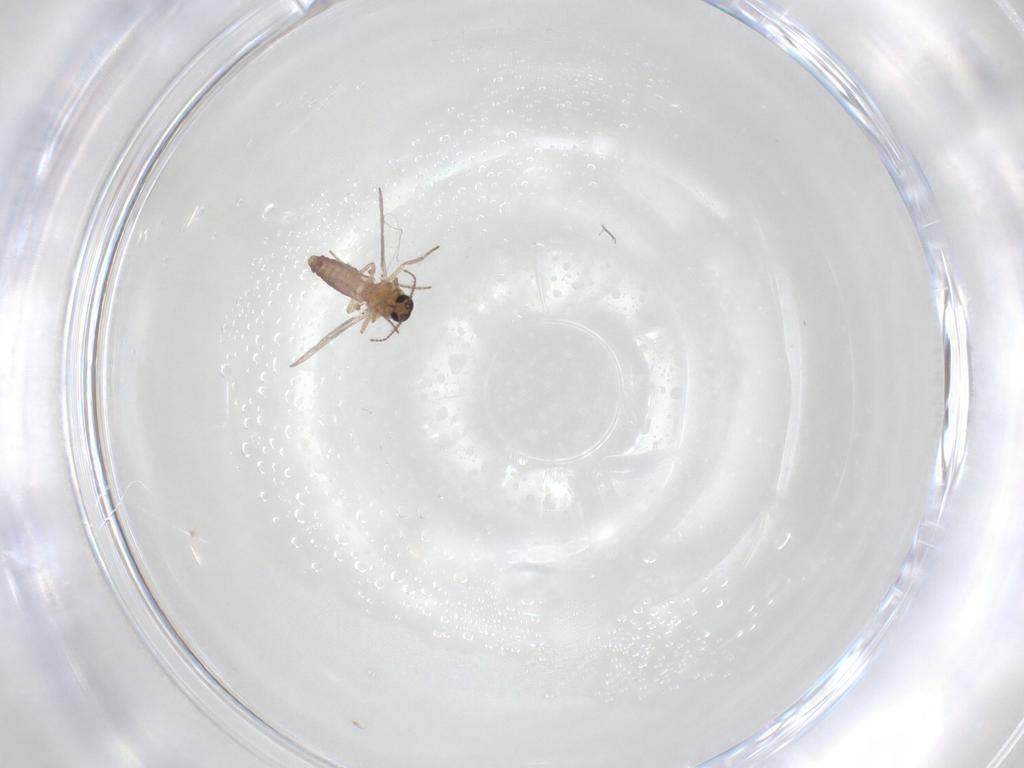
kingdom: Animalia
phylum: Arthropoda
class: Insecta
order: Diptera
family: Ceratopogonidae
